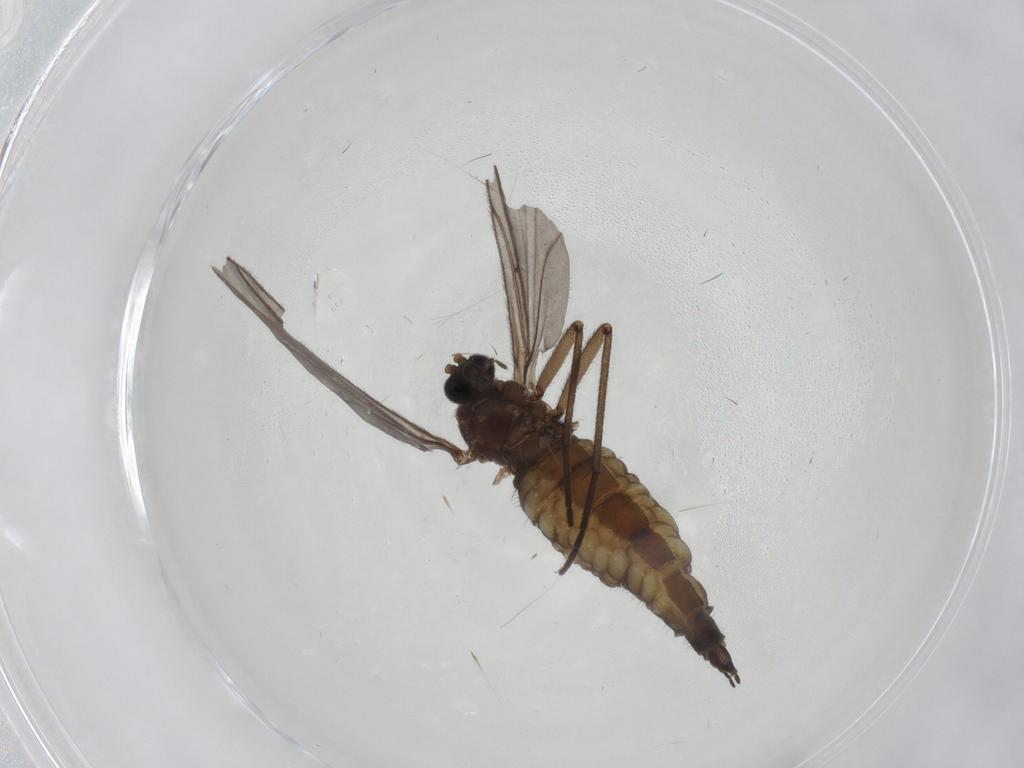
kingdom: Animalia
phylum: Arthropoda
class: Insecta
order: Diptera
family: Sciaridae
